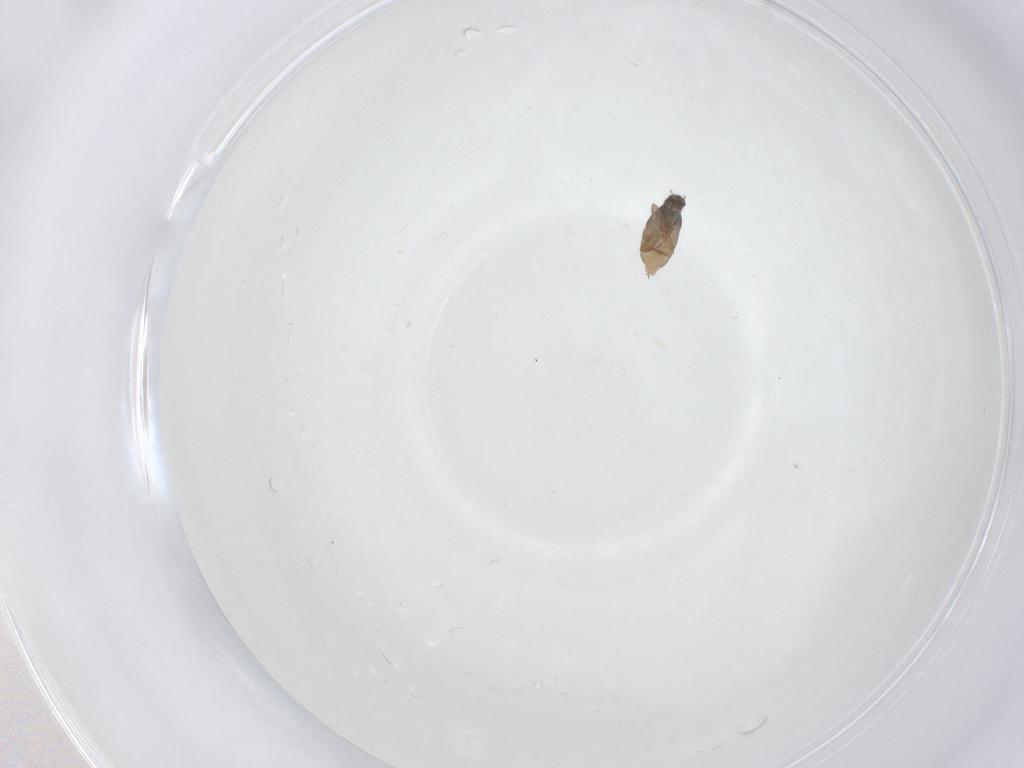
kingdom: Animalia
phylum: Arthropoda
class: Insecta
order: Diptera
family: Phoridae
